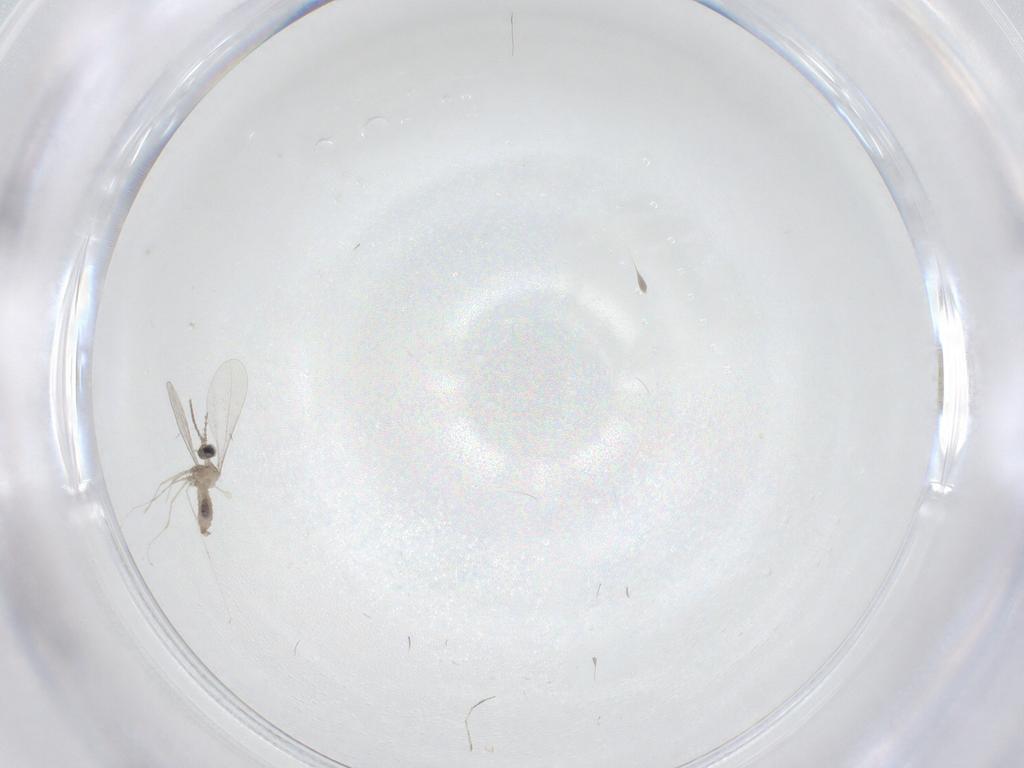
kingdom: Animalia
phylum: Arthropoda
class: Insecta
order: Diptera
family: Cecidomyiidae
